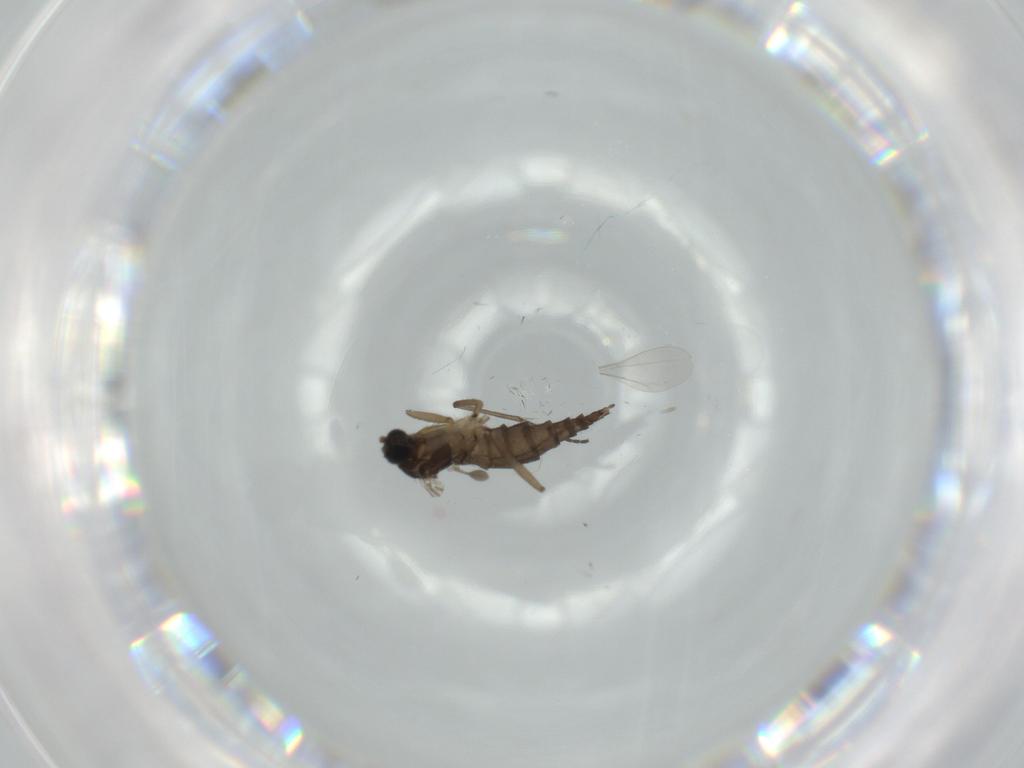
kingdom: Animalia
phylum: Arthropoda
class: Insecta
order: Diptera
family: Sciaridae
